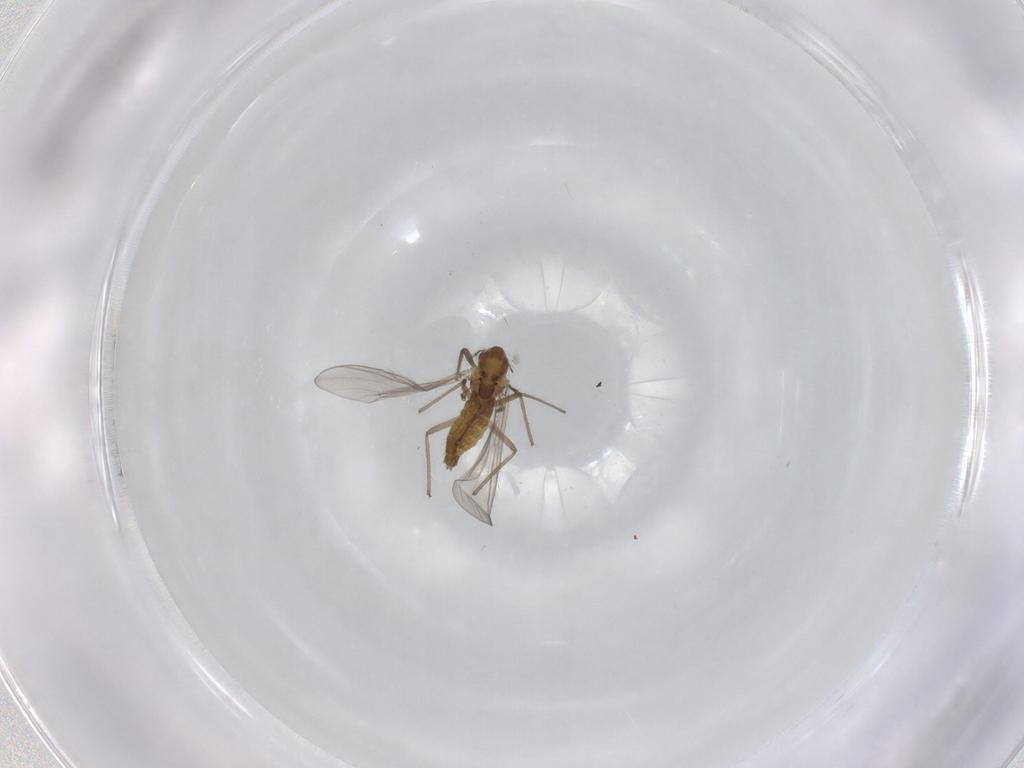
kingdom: Animalia
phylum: Arthropoda
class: Insecta
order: Diptera
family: Chironomidae
